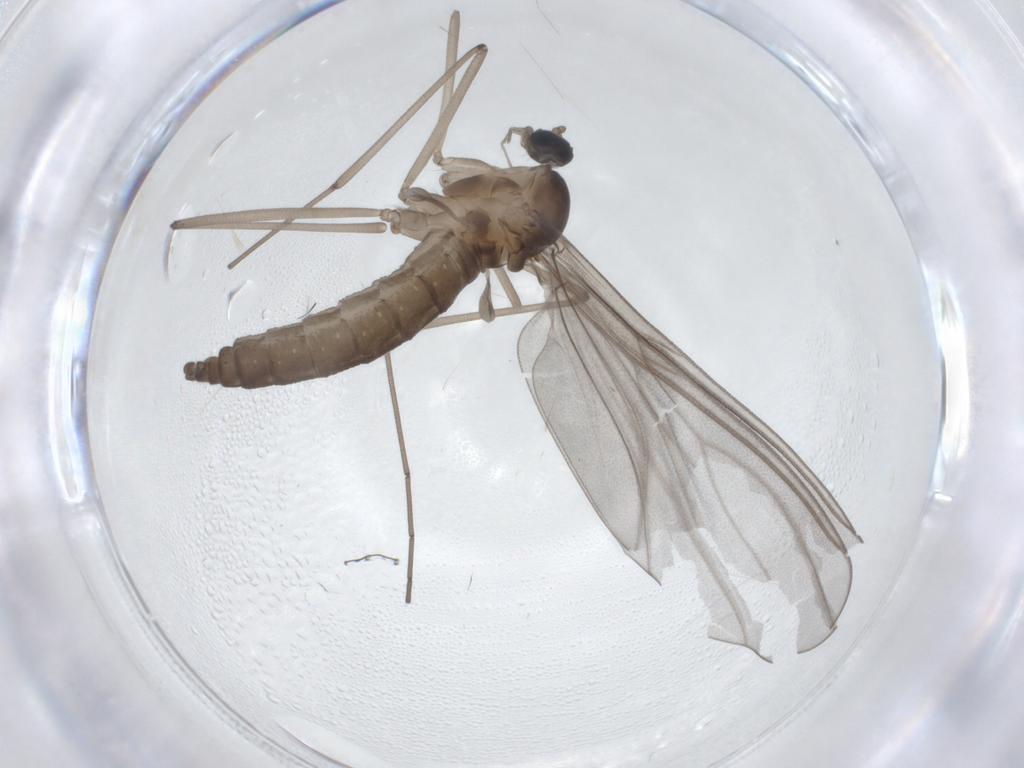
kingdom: Animalia
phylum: Arthropoda
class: Insecta
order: Diptera
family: Cecidomyiidae
